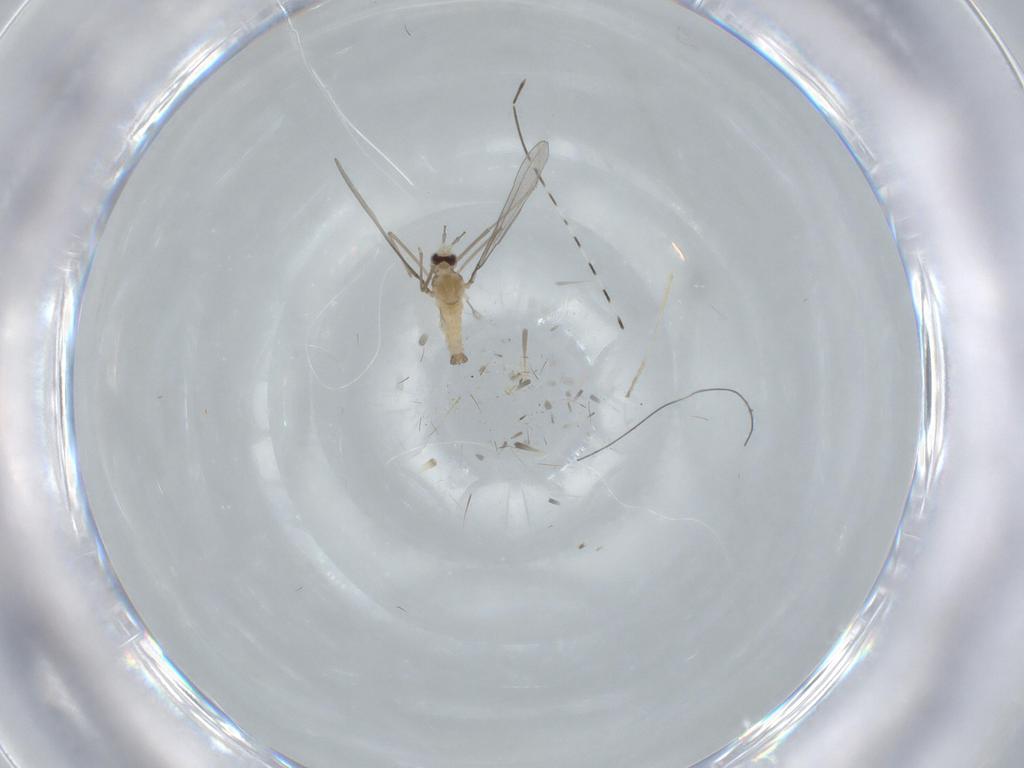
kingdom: Animalia
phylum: Arthropoda
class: Insecta
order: Diptera
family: Cecidomyiidae
